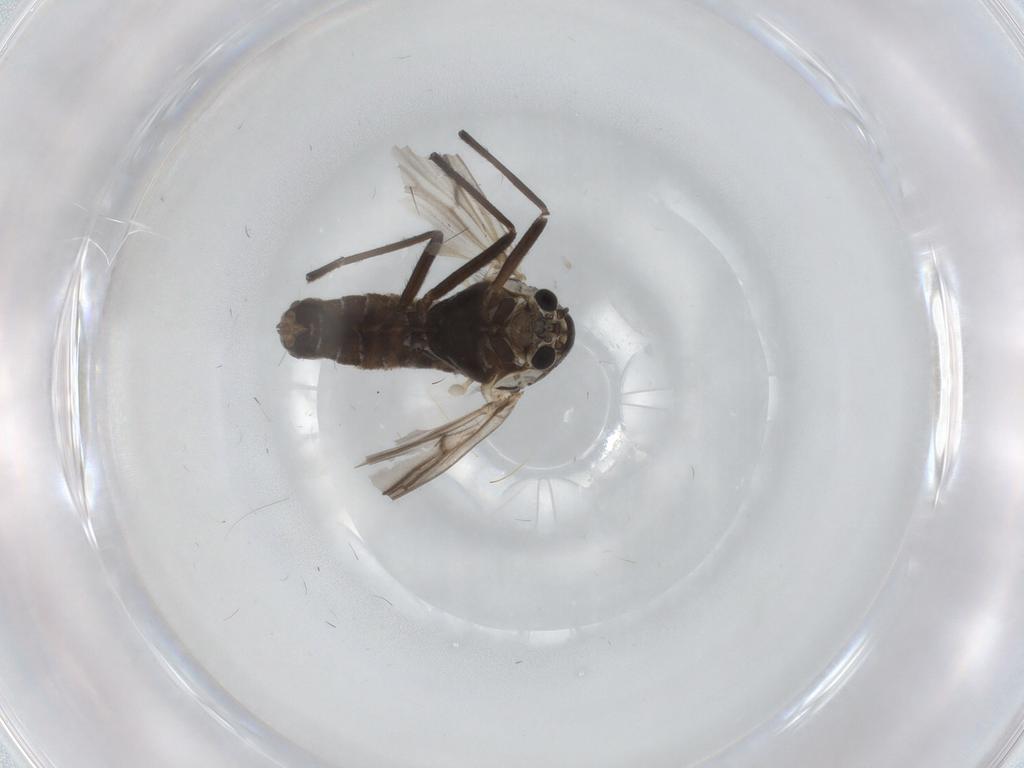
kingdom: Animalia
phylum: Arthropoda
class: Insecta
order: Diptera
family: Chironomidae
